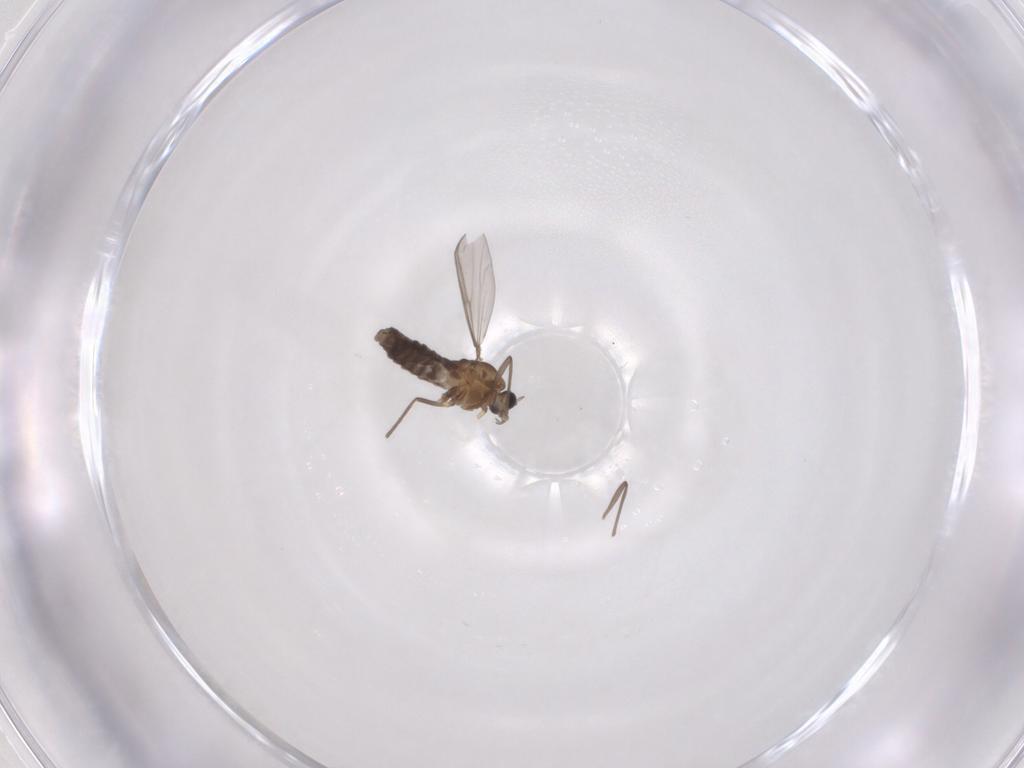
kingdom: Animalia
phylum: Arthropoda
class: Insecta
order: Diptera
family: Chironomidae
